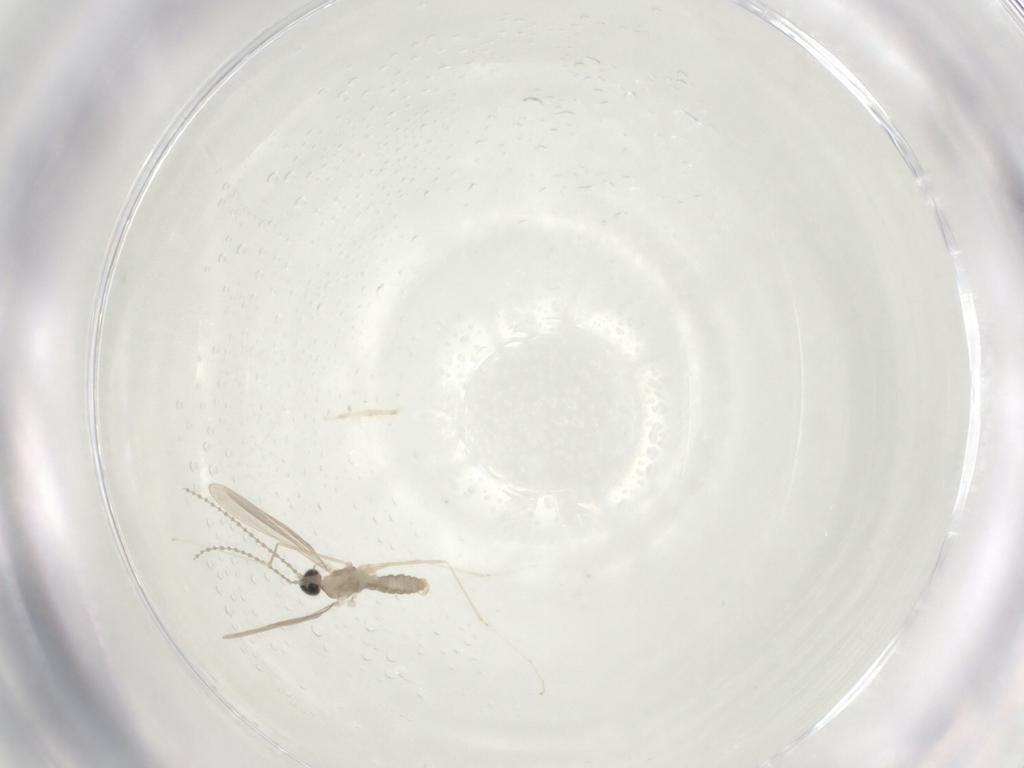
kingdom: Animalia
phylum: Arthropoda
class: Insecta
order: Diptera
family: Cecidomyiidae
